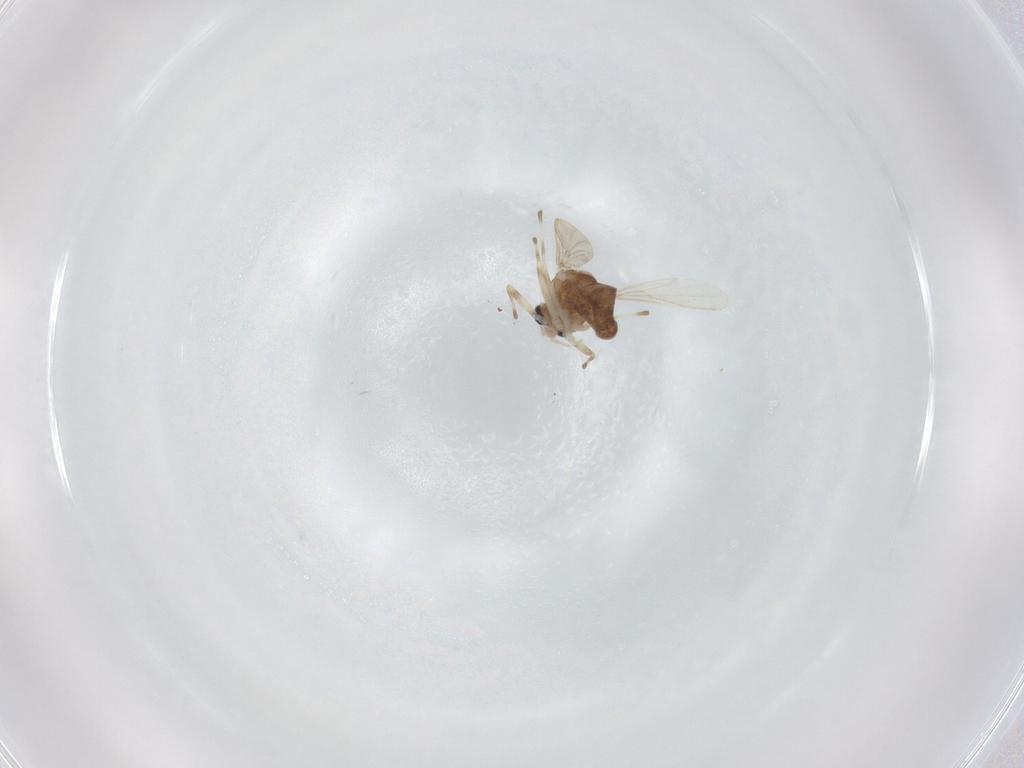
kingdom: Animalia
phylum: Arthropoda
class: Insecta
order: Diptera
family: Chironomidae
